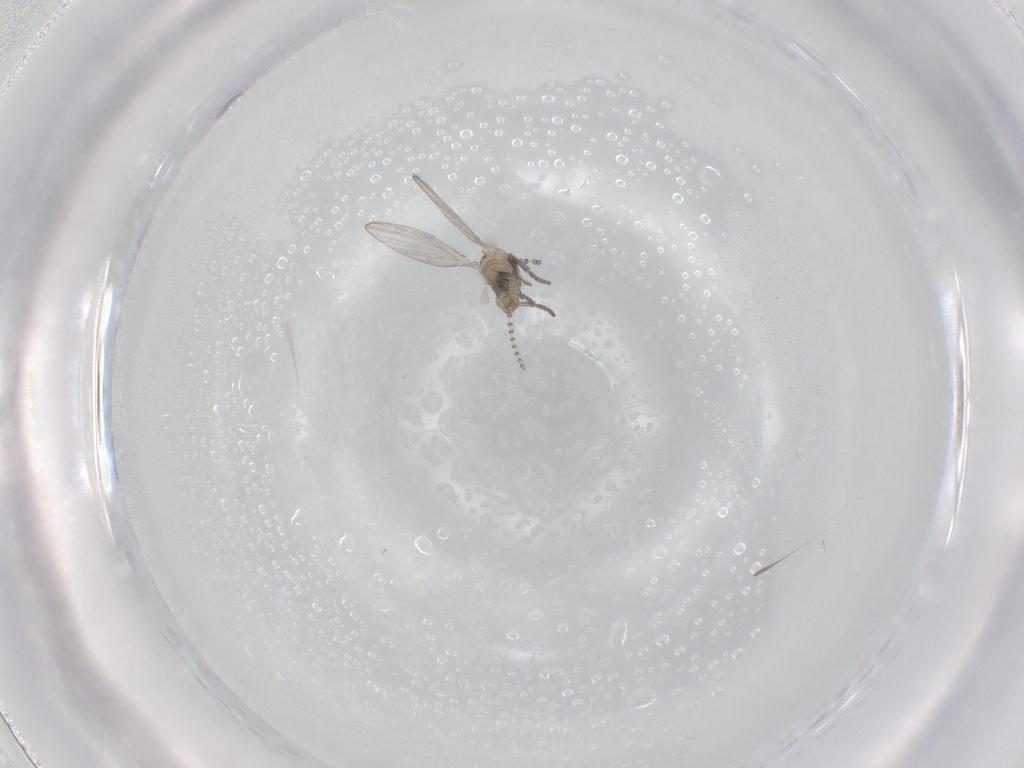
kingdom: Animalia
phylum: Arthropoda
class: Insecta
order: Diptera
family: Psychodidae
